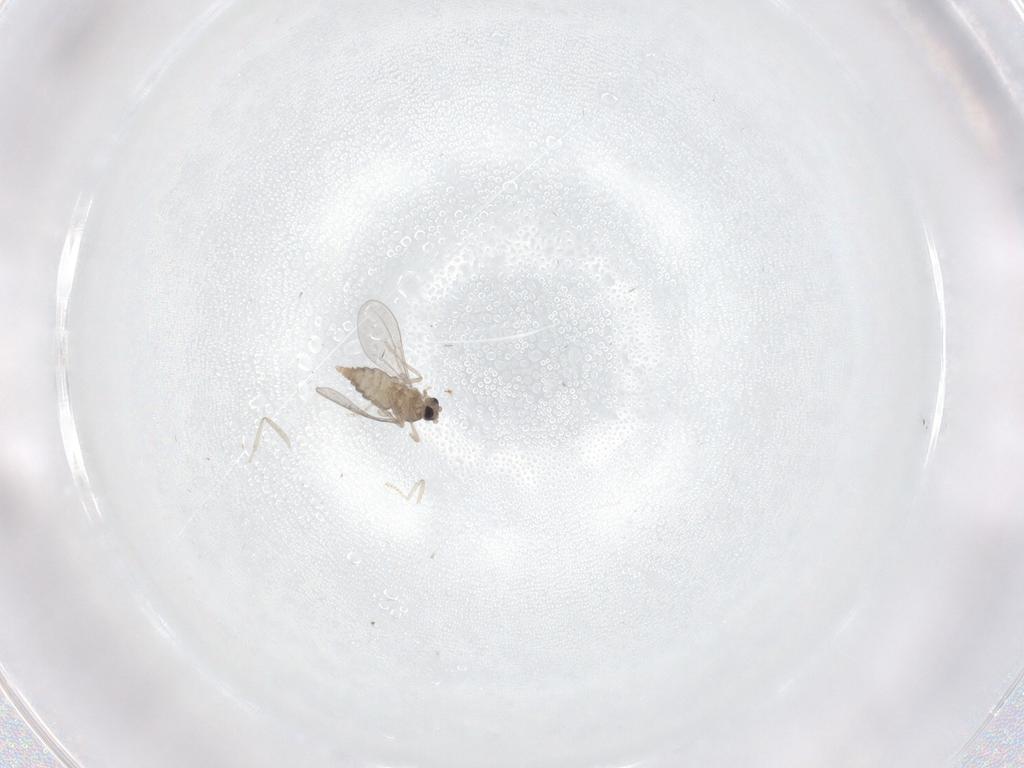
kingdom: Animalia
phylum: Arthropoda
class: Insecta
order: Diptera
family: Cecidomyiidae
